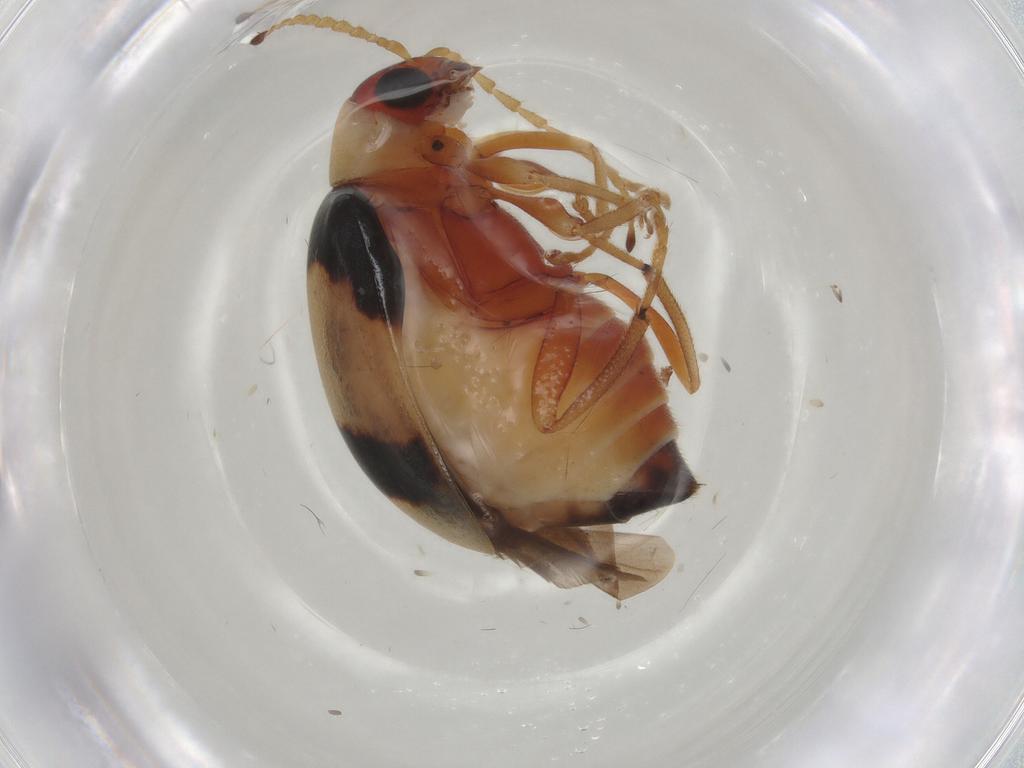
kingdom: Animalia
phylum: Arthropoda
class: Insecta
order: Coleoptera
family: Chrysomelidae
